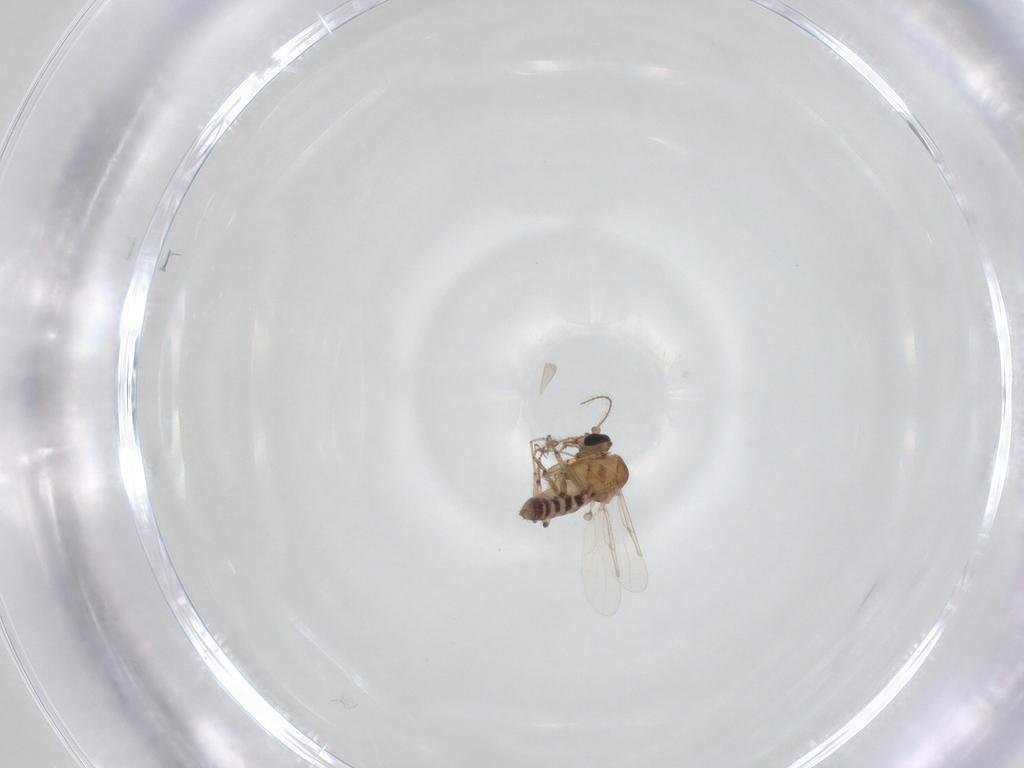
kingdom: Animalia
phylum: Arthropoda
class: Insecta
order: Diptera
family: Ceratopogonidae
